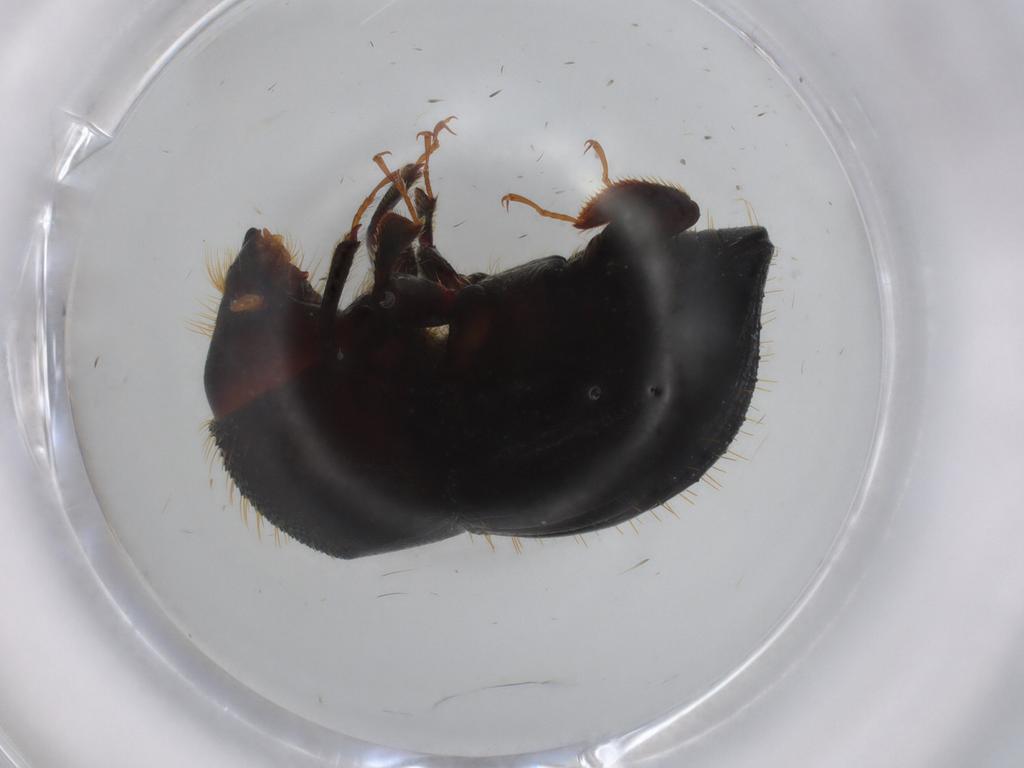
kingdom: Animalia
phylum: Arthropoda
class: Insecta
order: Coleoptera
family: Curculionidae
